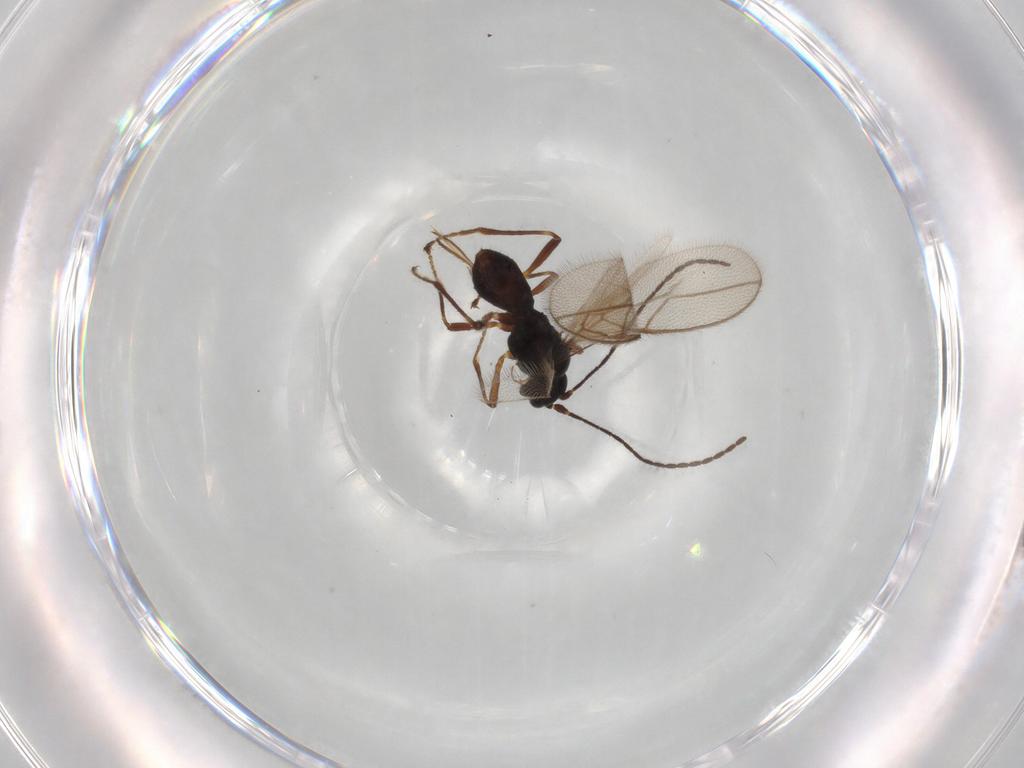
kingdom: Animalia
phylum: Arthropoda
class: Insecta
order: Hymenoptera
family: Braconidae
